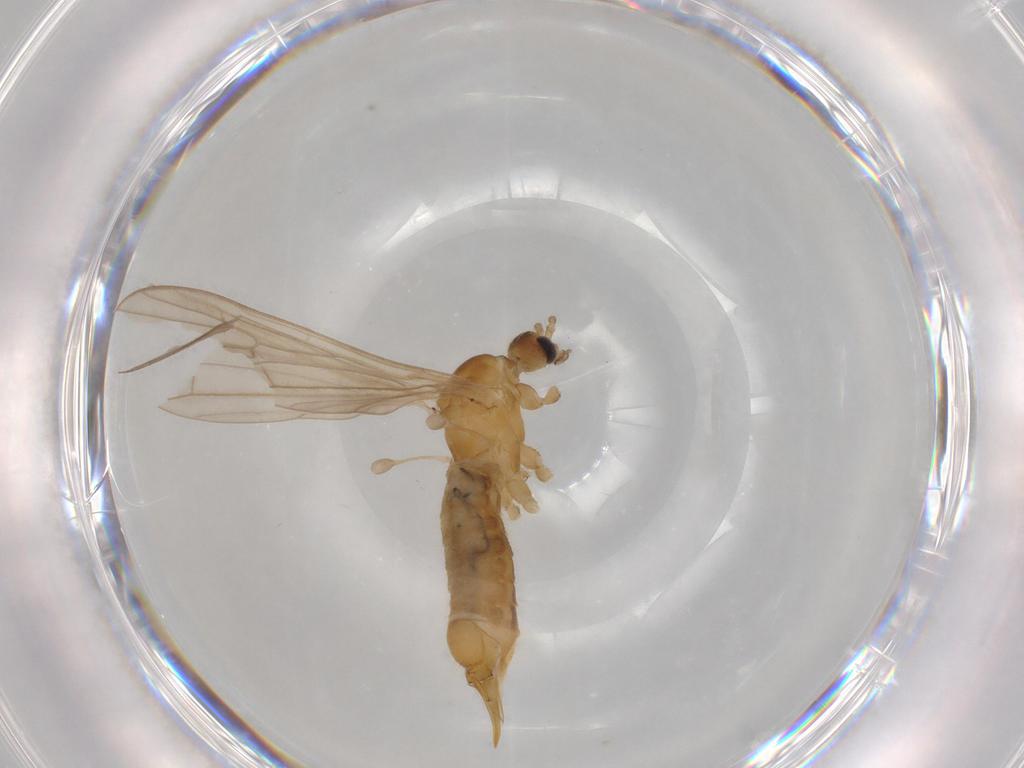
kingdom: Animalia
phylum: Arthropoda
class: Insecta
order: Diptera
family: Limoniidae
